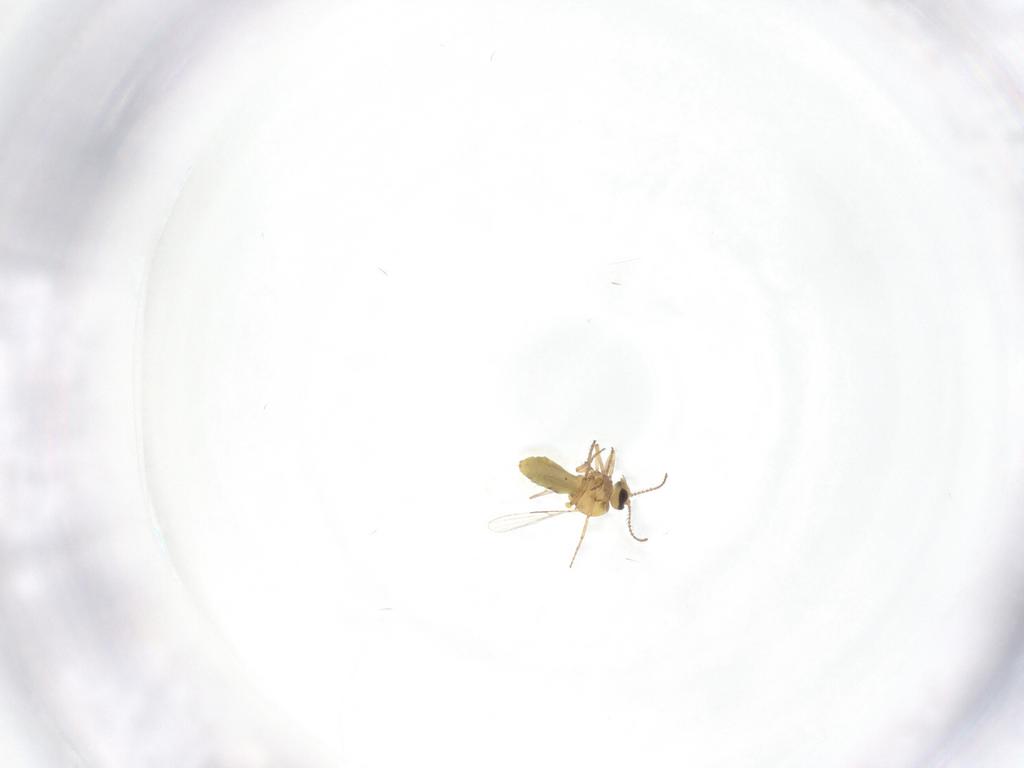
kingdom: Animalia
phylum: Arthropoda
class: Insecta
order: Diptera
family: Ceratopogonidae
